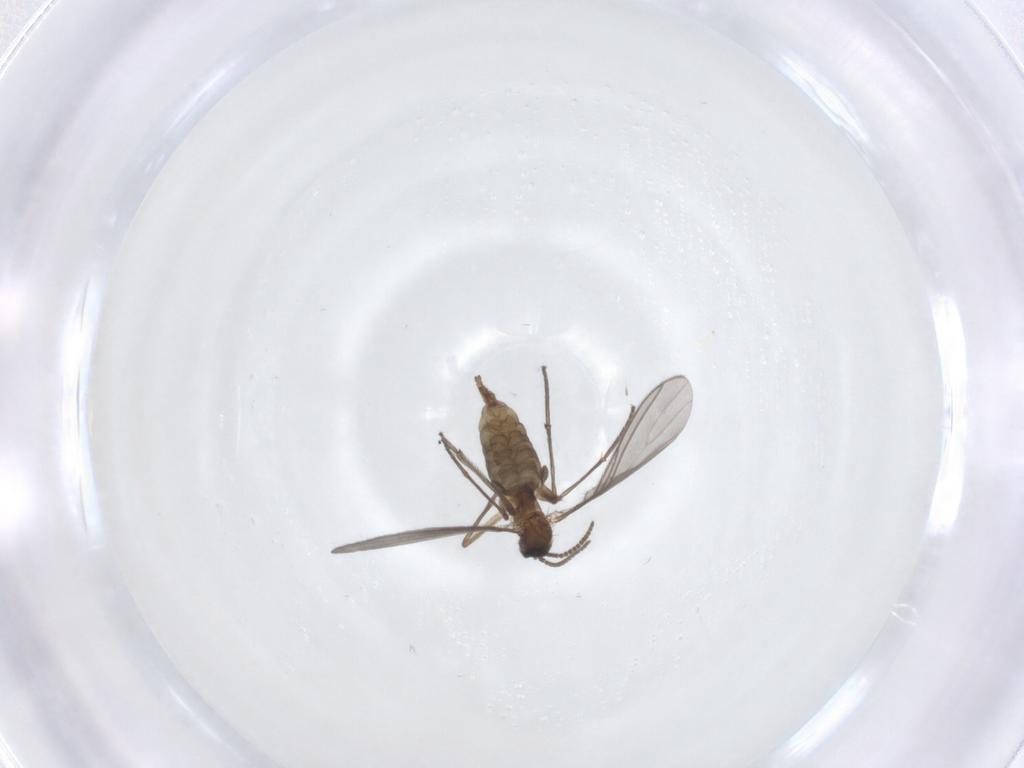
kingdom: Animalia
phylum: Arthropoda
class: Insecta
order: Diptera
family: Sciaridae
